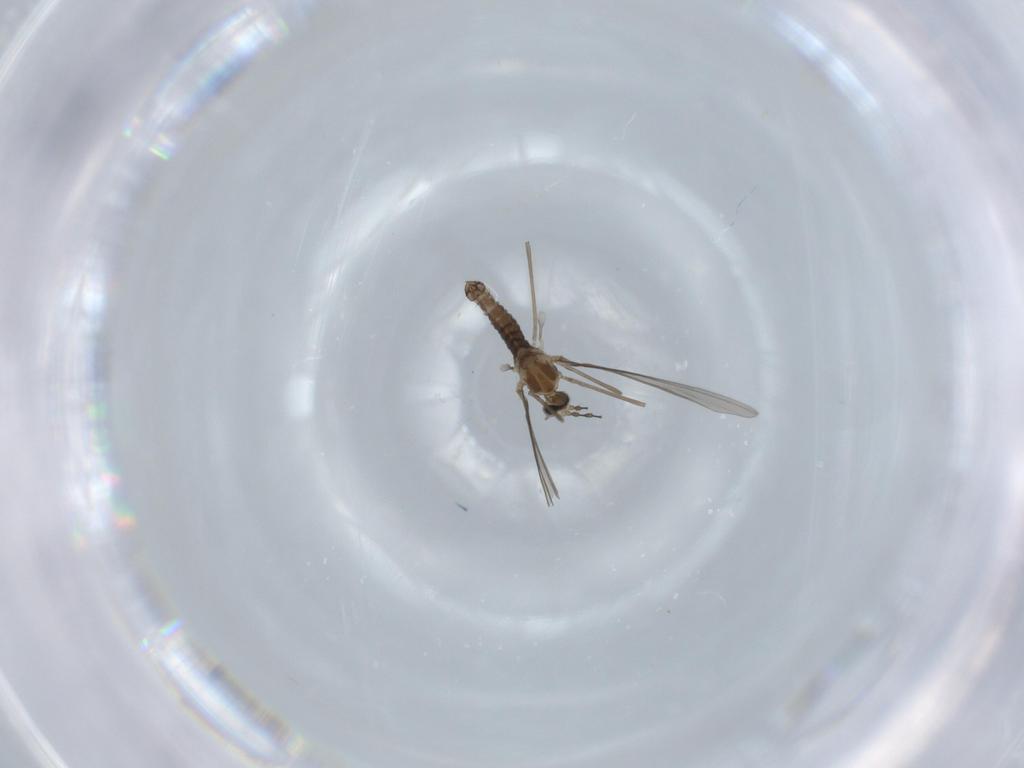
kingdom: Animalia
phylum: Arthropoda
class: Insecta
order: Diptera
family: Cecidomyiidae
